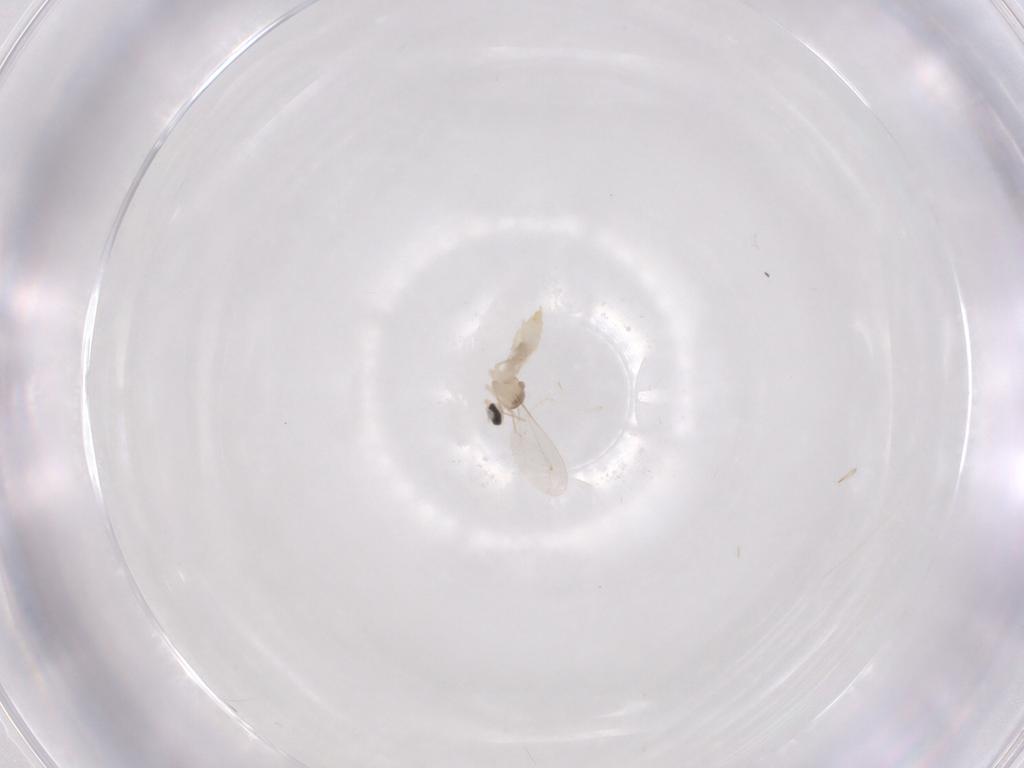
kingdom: Animalia
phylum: Arthropoda
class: Insecta
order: Diptera
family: Cecidomyiidae
